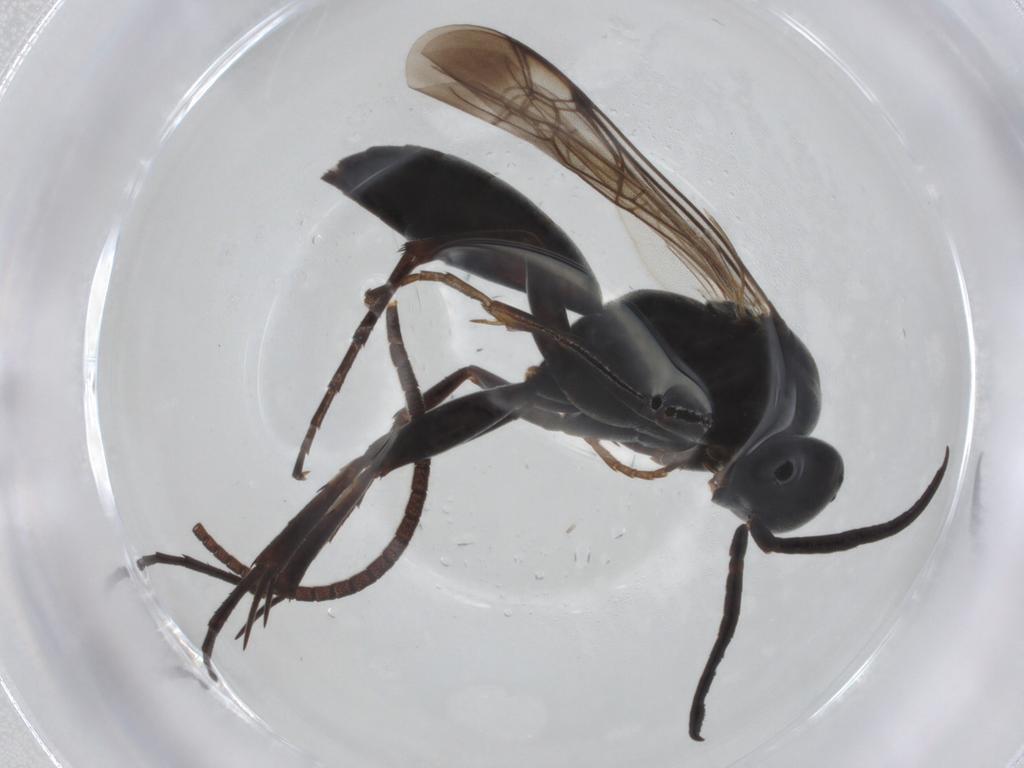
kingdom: Animalia
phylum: Arthropoda
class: Insecta
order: Hymenoptera
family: Pompilidae
